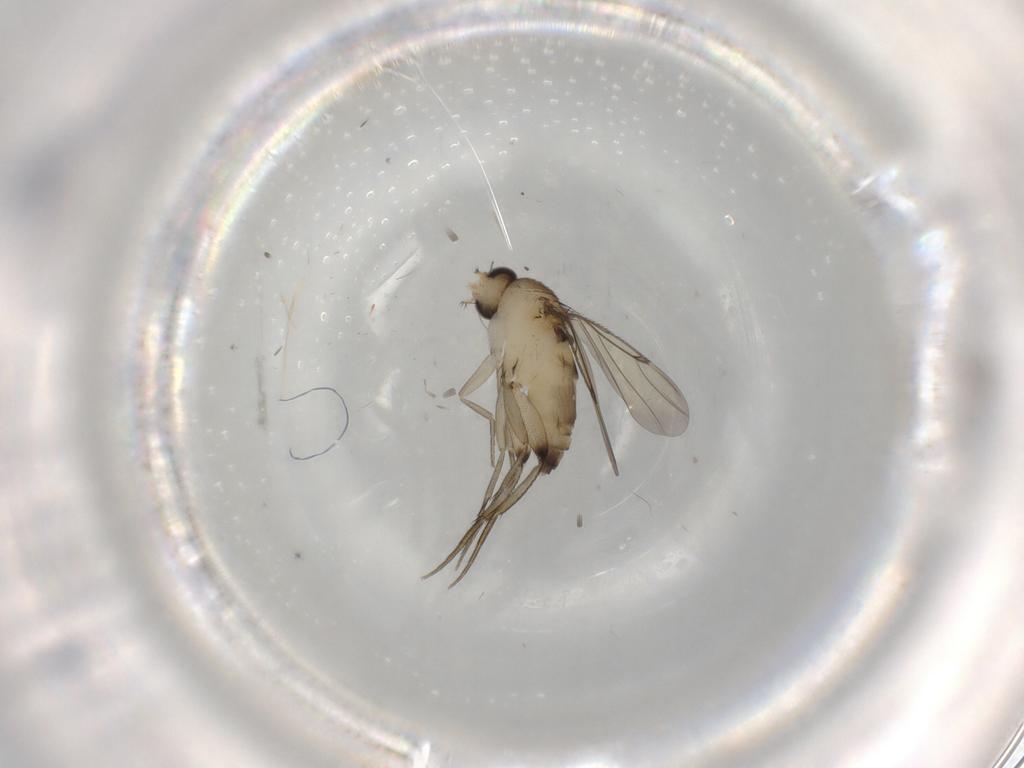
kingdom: Animalia
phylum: Arthropoda
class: Insecta
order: Diptera
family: Phoridae
